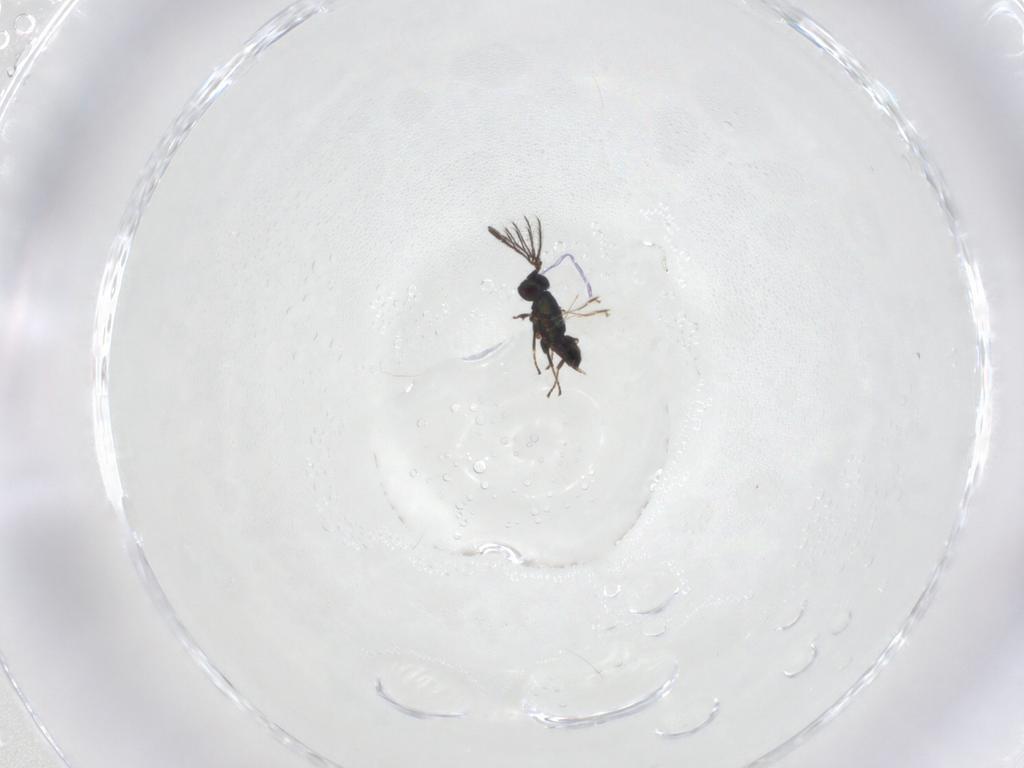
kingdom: Animalia
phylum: Arthropoda
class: Insecta
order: Hymenoptera
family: Encyrtidae
